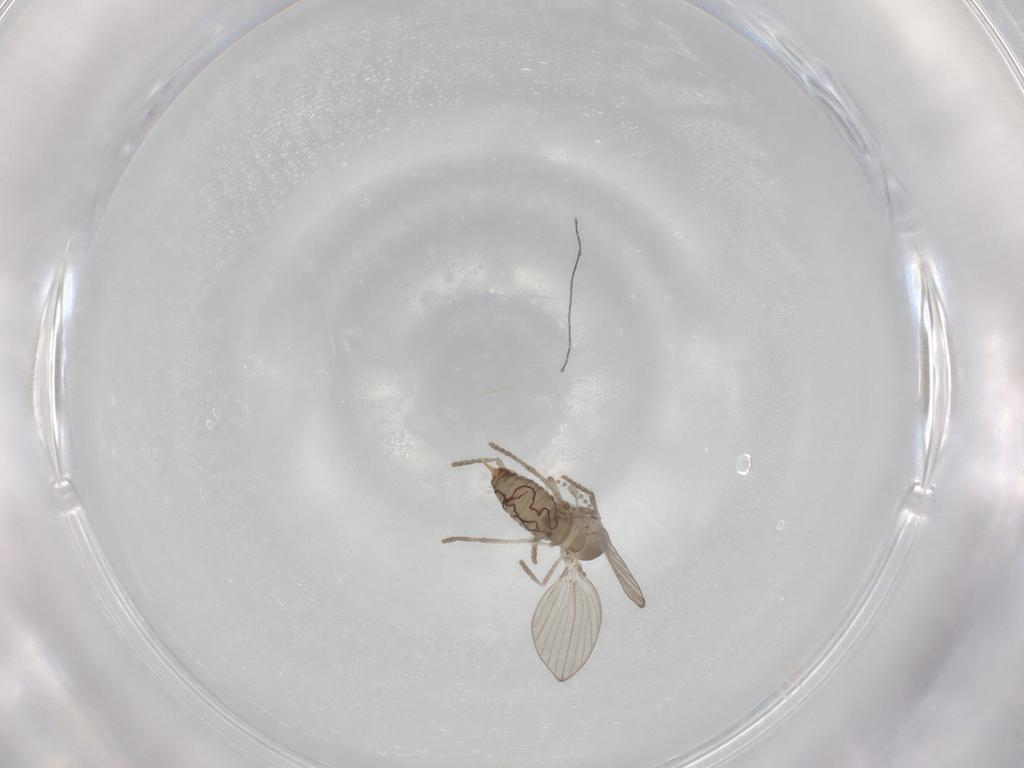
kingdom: Animalia
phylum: Arthropoda
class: Insecta
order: Diptera
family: Psychodidae
